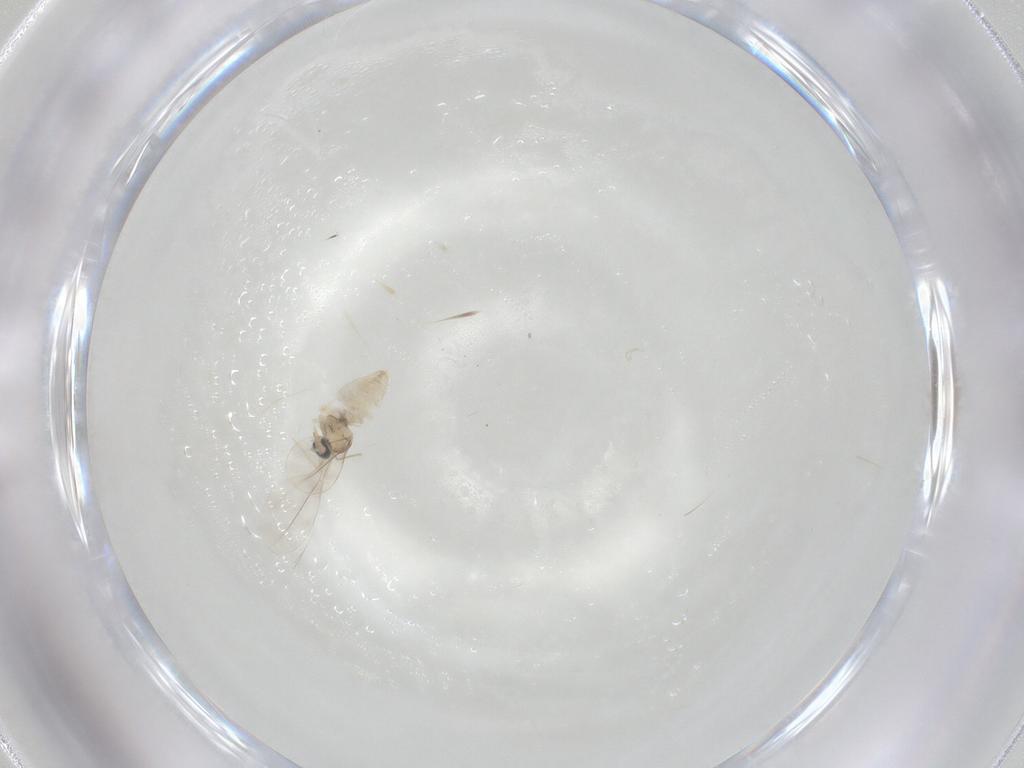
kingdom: Animalia
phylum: Arthropoda
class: Insecta
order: Diptera
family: Cecidomyiidae
